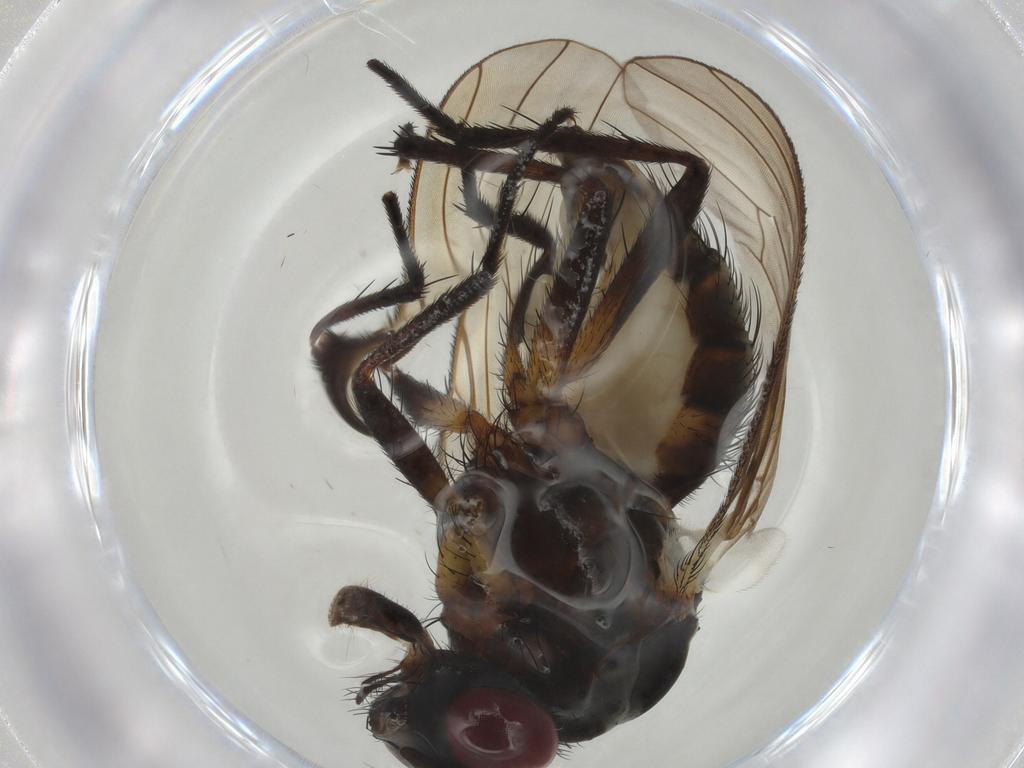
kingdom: Animalia
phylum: Arthropoda
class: Insecta
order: Diptera
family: Anthomyiidae
